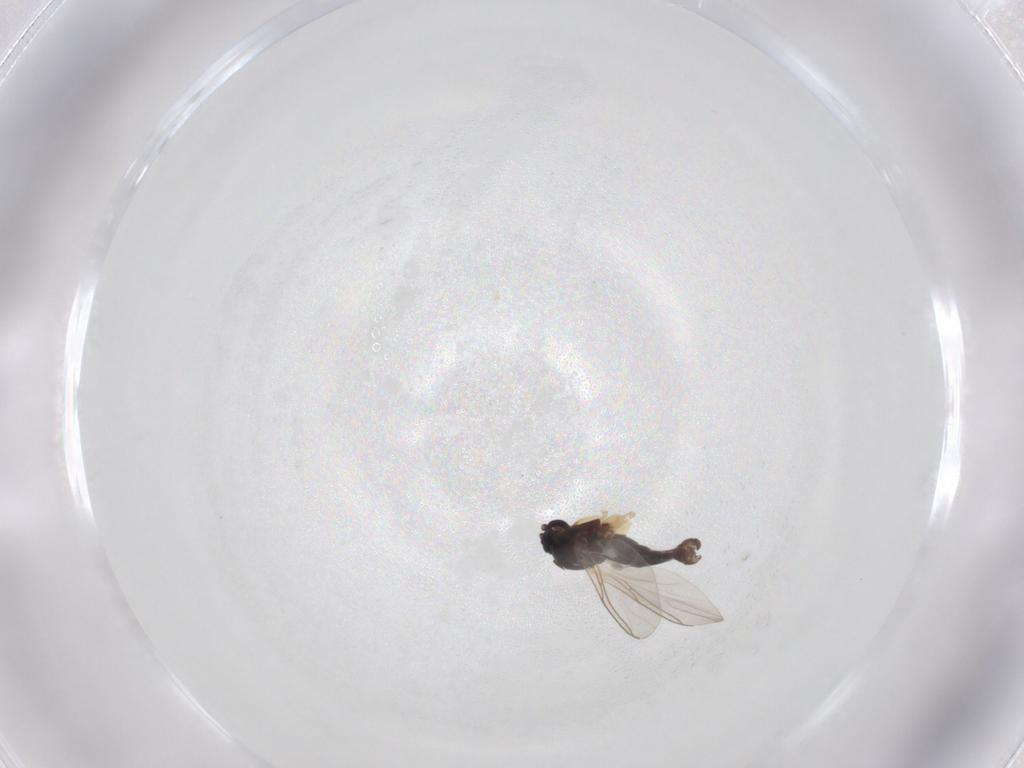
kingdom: Animalia
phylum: Arthropoda
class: Insecta
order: Diptera
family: Sciaridae
